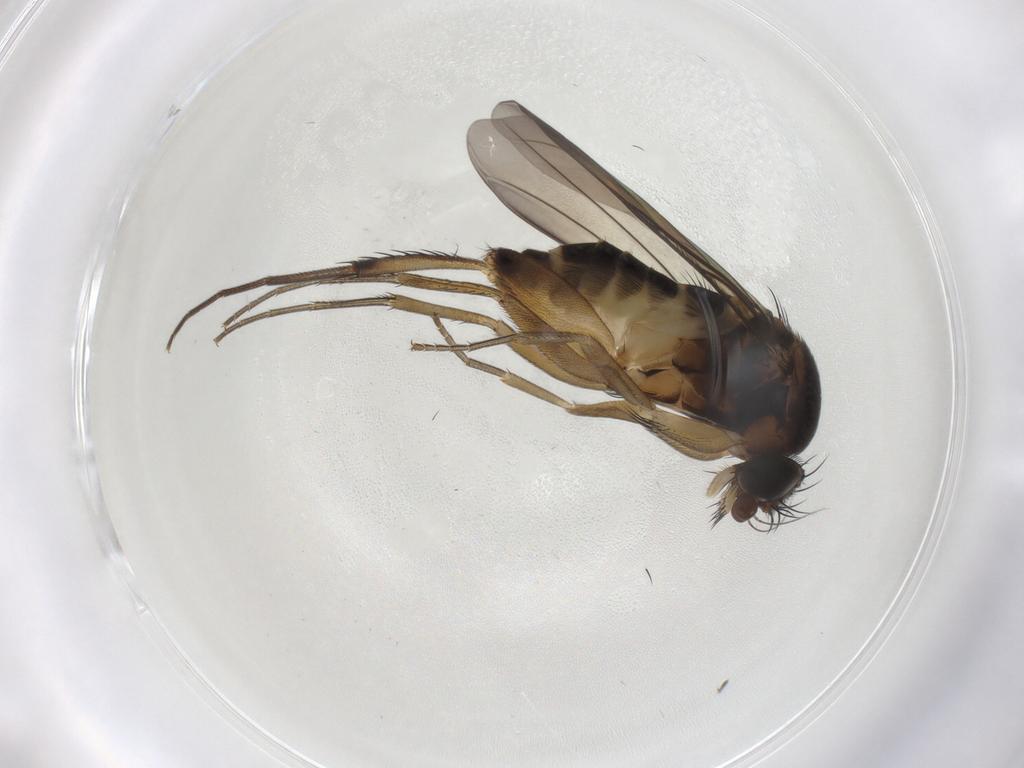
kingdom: Animalia
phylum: Arthropoda
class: Insecta
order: Diptera
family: Phoridae
